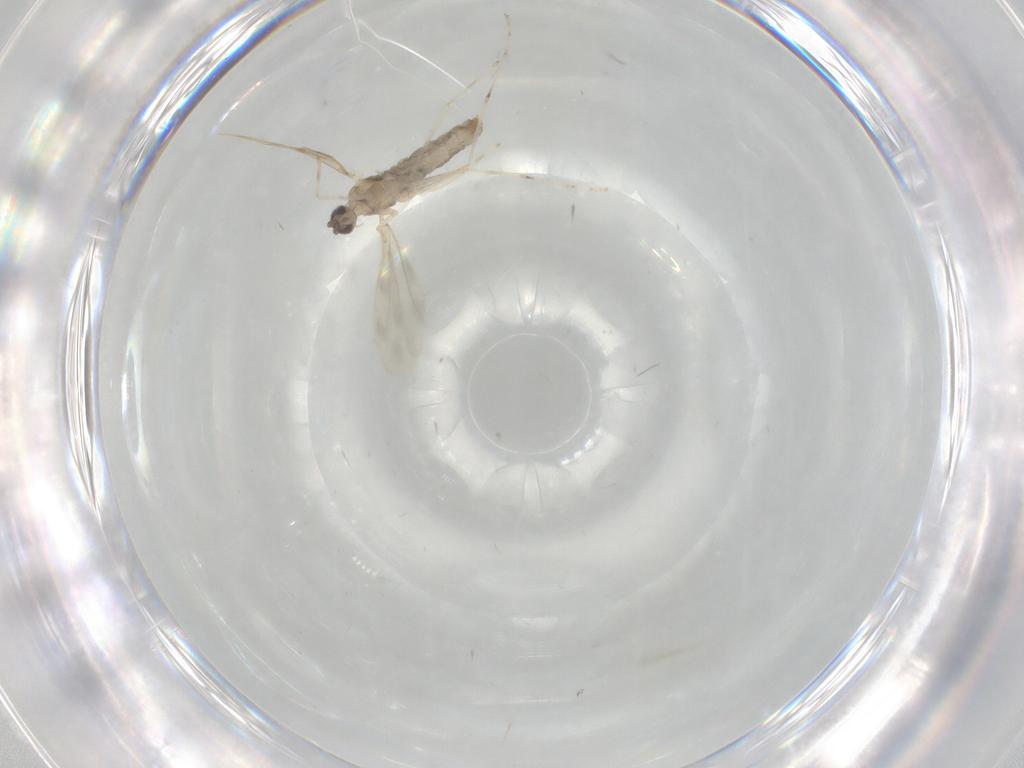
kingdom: Animalia
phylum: Arthropoda
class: Insecta
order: Diptera
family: Cecidomyiidae
